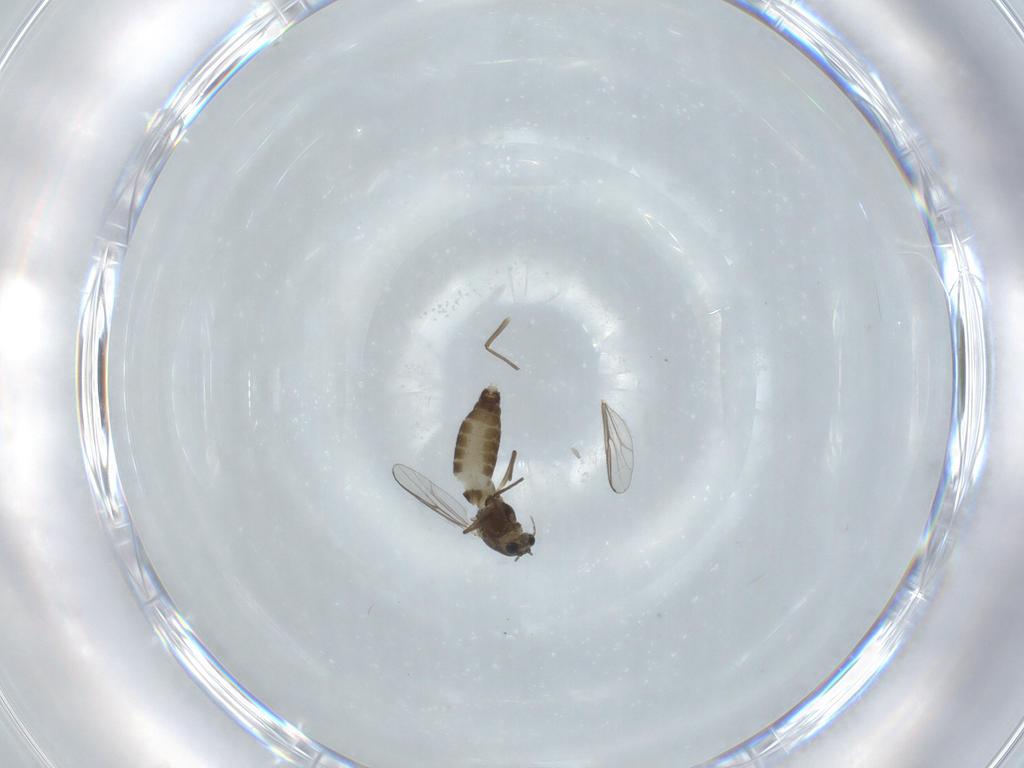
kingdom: Animalia
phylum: Arthropoda
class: Insecta
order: Diptera
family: Chironomidae
